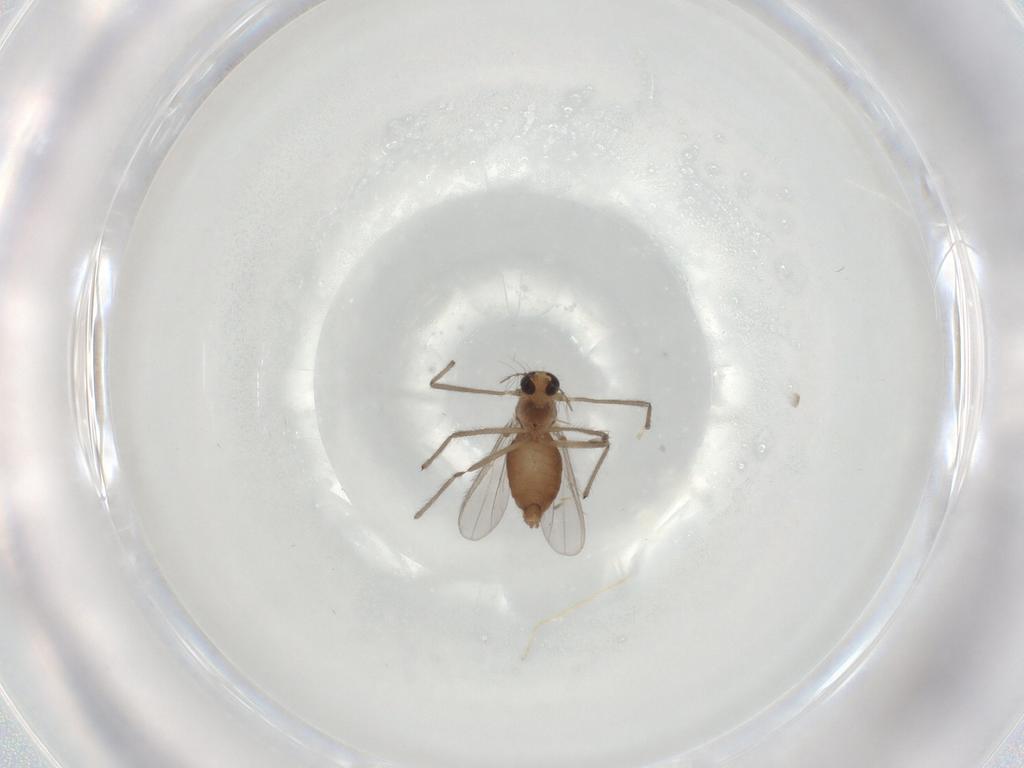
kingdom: Animalia
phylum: Arthropoda
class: Insecta
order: Diptera
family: Chironomidae
